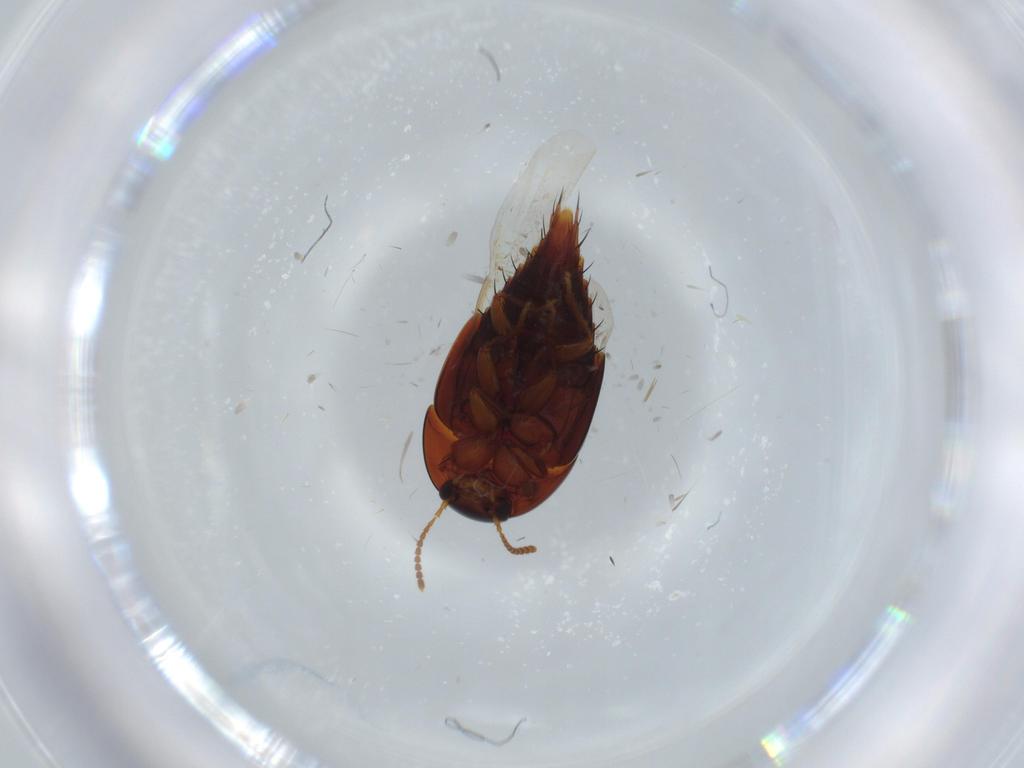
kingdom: Animalia
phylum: Arthropoda
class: Insecta
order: Coleoptera
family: Staphylinidae
